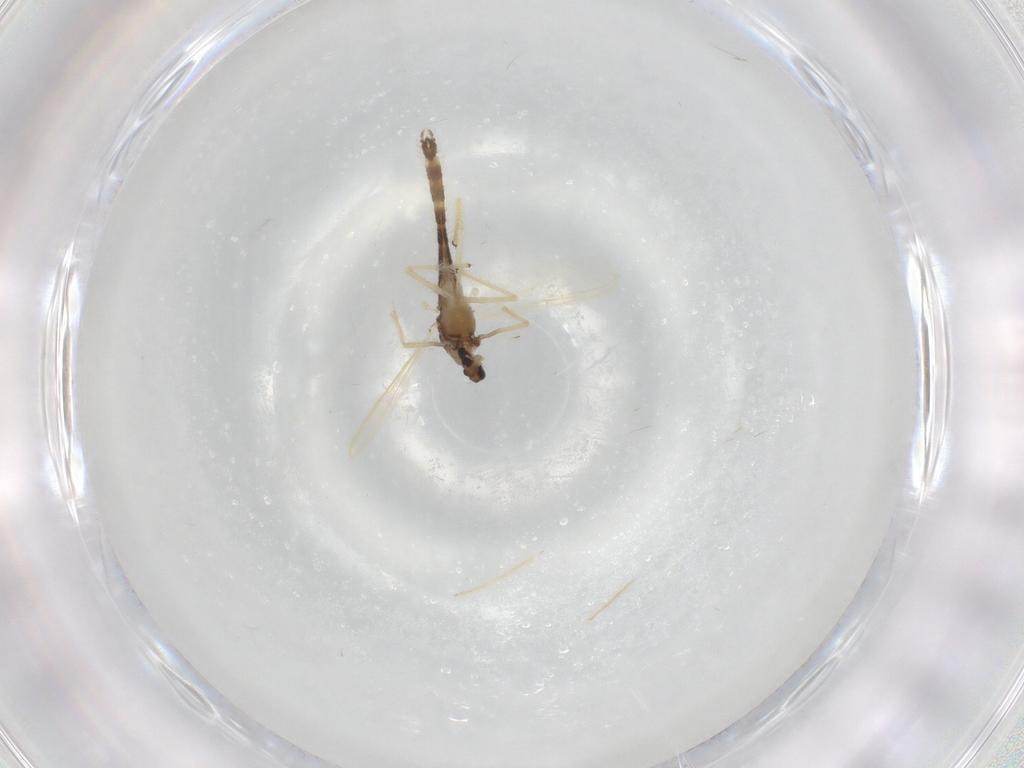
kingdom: Animalia
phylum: Arthropoda
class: Insecta
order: Diptera
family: Chironomidae
